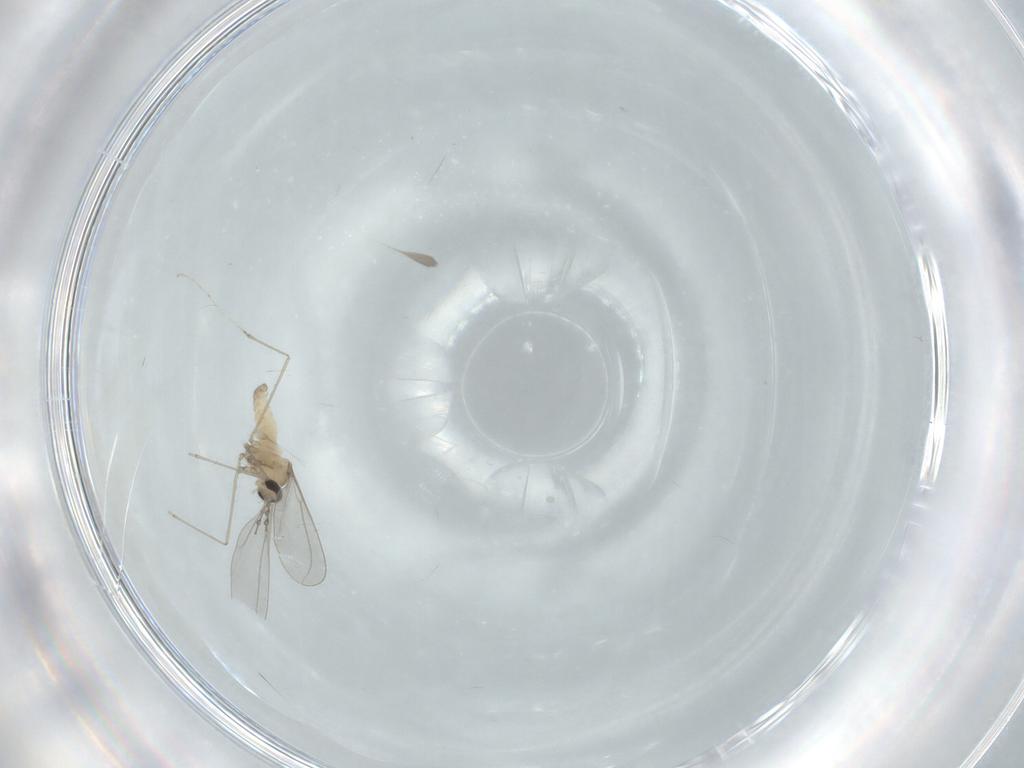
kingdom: Animalia
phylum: Arthropoda
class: Insecta
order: Diptera
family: Cecidomyiidae
